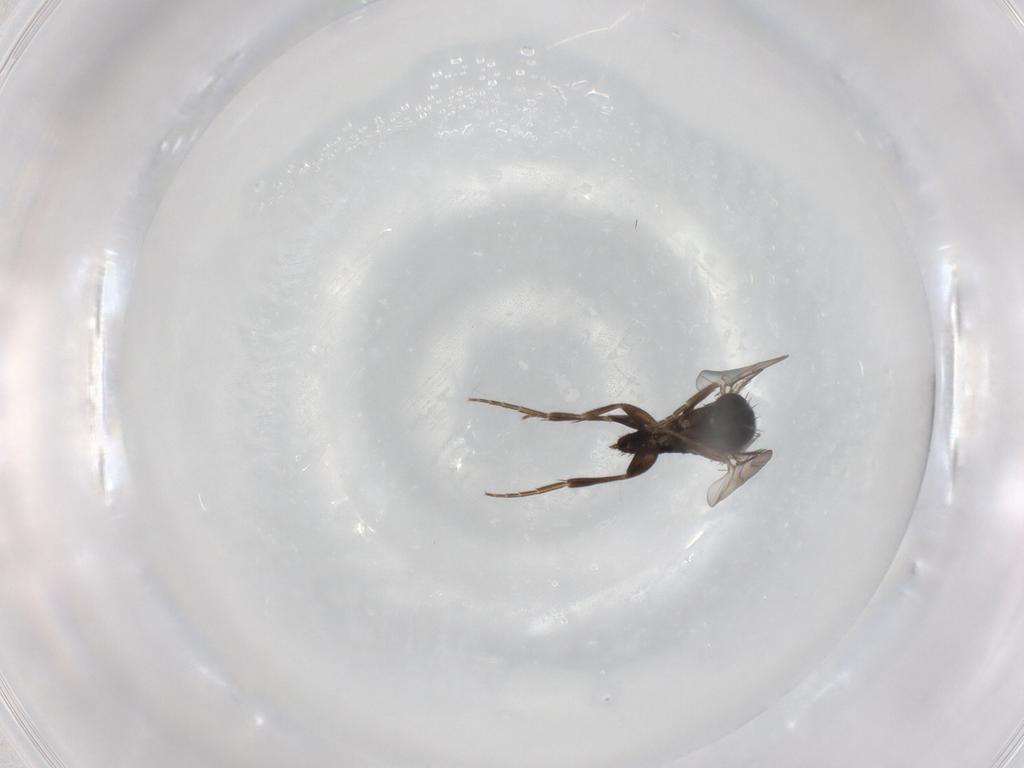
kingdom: Animalia
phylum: Arthropoda
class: Insecta
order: Diptera
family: Phoridae
